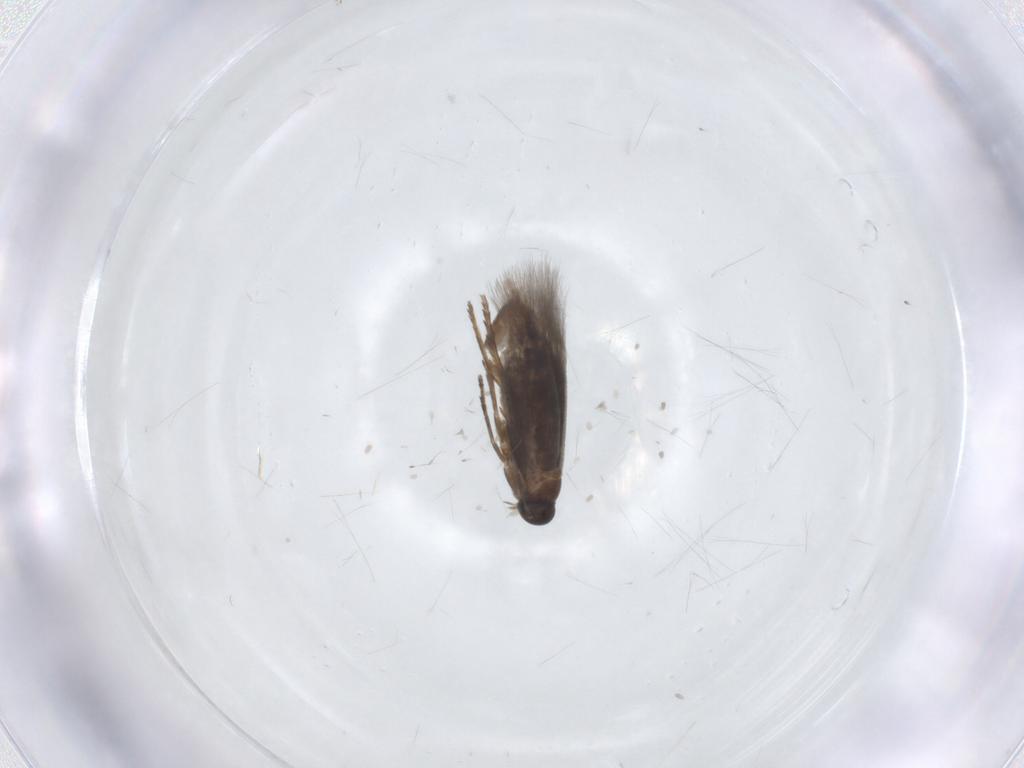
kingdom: Animalia
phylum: Arthropoda
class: Insecta
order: Lepidoptera
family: Heliozelidae
